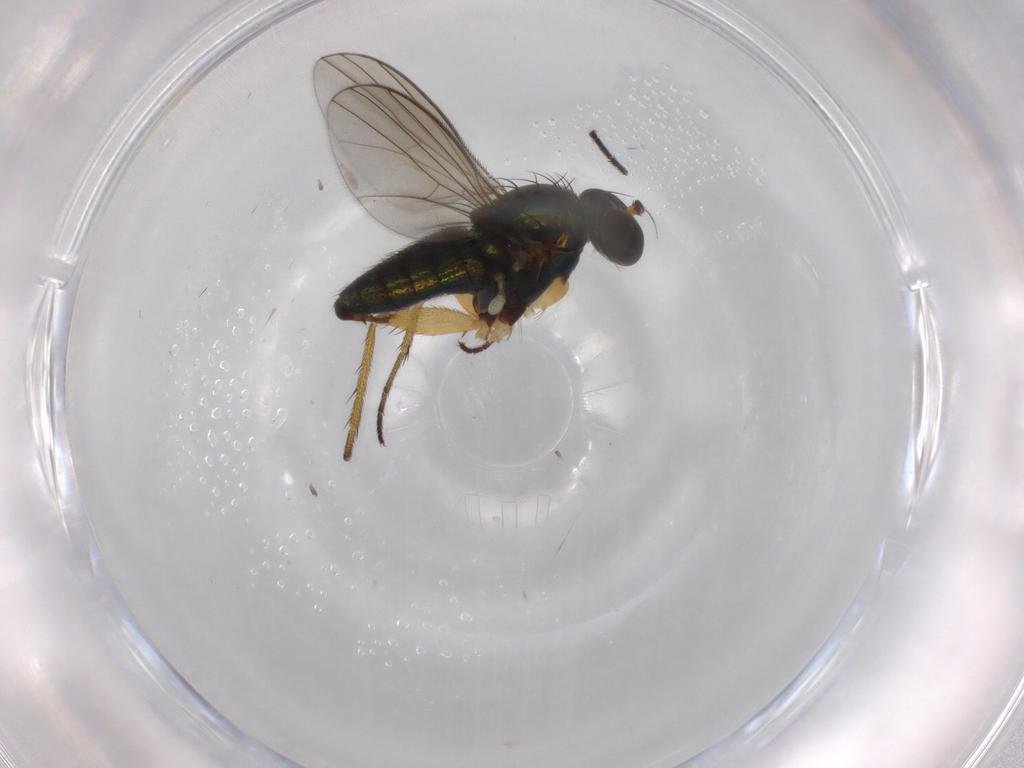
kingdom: Animalia
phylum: Arthropoda
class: Insecta
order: Diptera
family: Dolichopodidae
